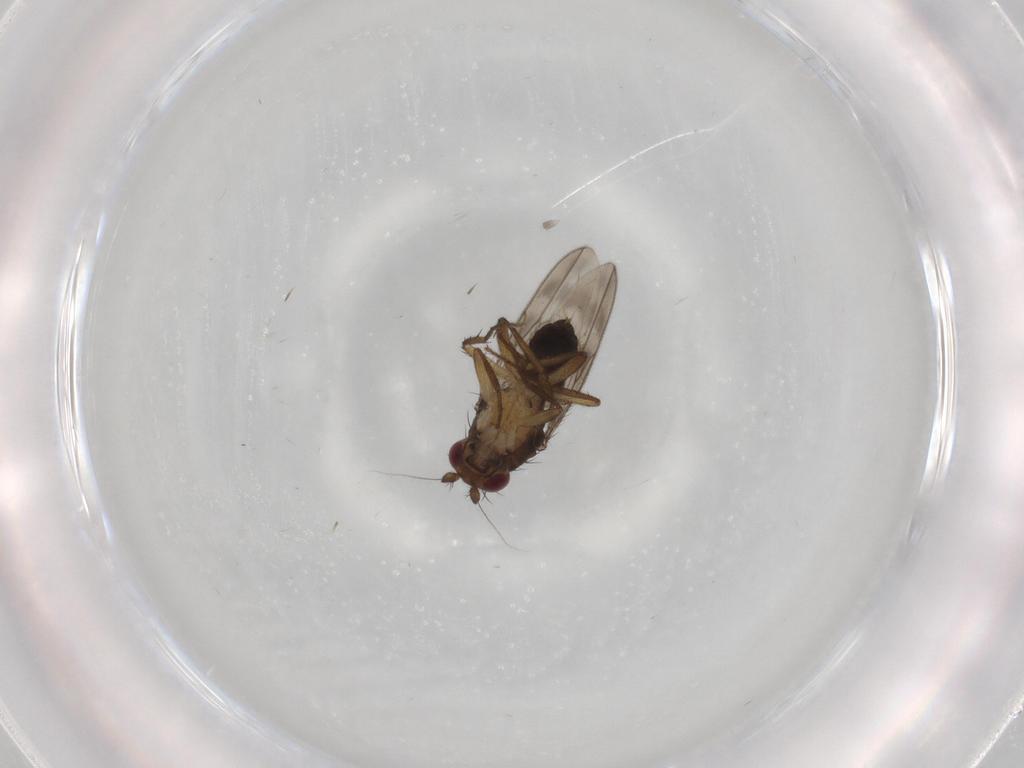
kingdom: Animalia
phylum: Arthropoda
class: Insecta
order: Diptera
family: Sphaeroceridae
